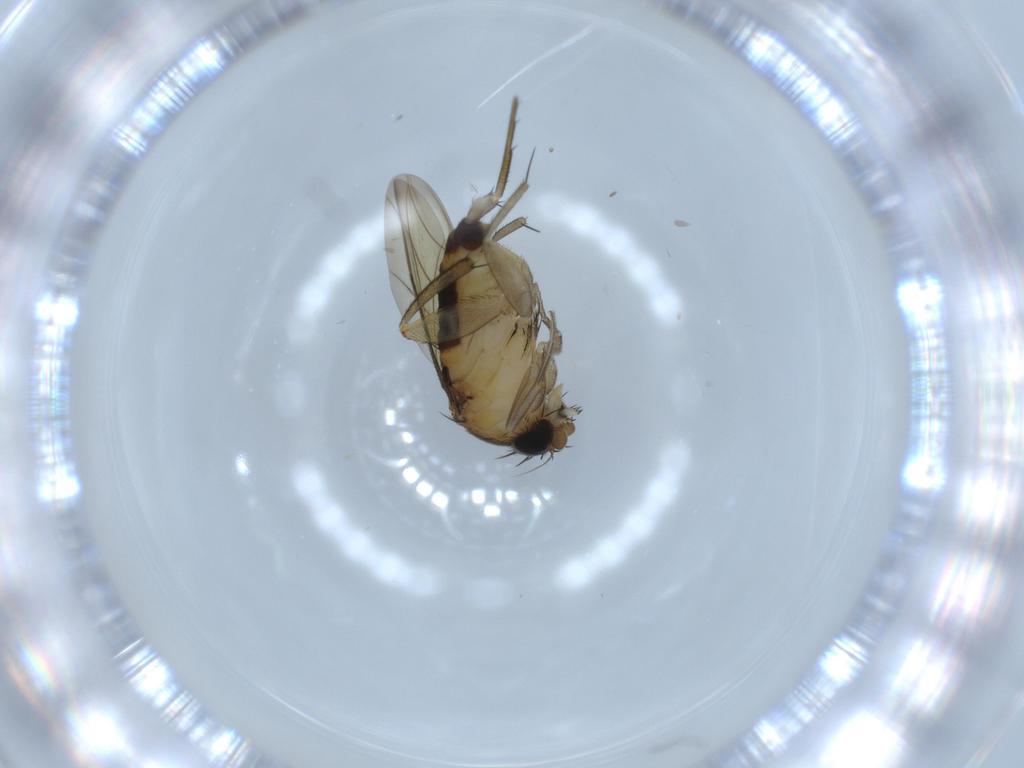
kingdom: Animalia
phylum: Arthropoda
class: Insecta
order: Diptera
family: Phoridae
